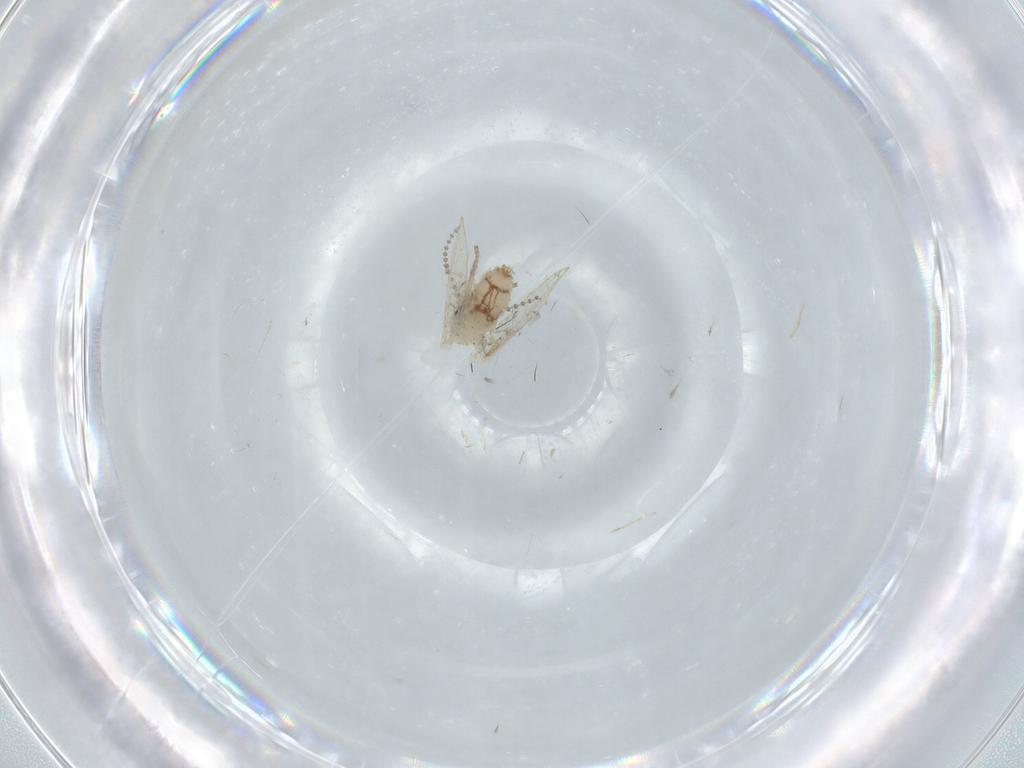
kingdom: Animalia
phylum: Arthropoda
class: Insecta
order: Diptera
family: Psychodidae
